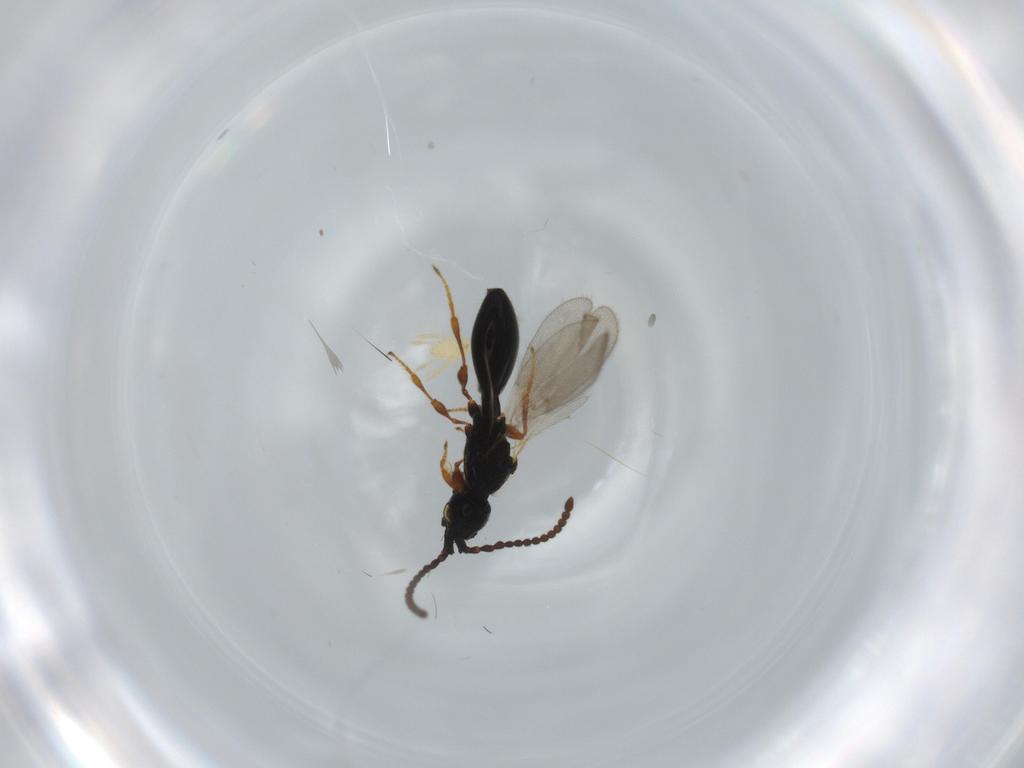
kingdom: Animalia
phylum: Arthropoda
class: Insecta
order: Hymenoptera
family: Diapriidae
